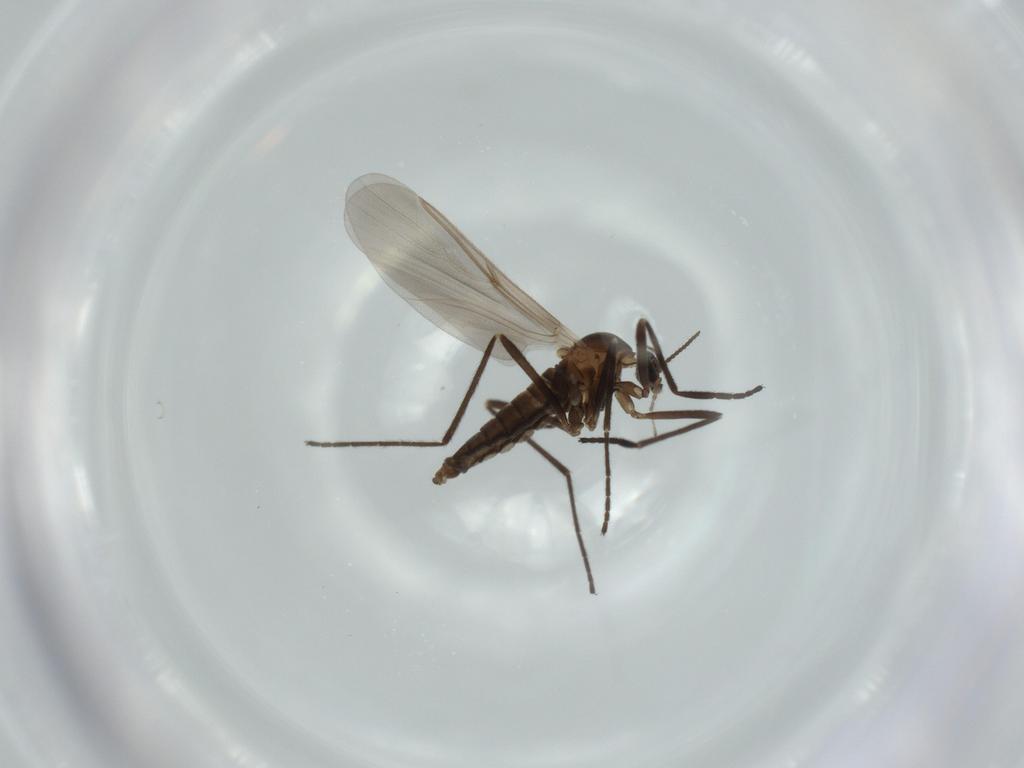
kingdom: Animalia
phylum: Arthropoda
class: Insecta
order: Diptera
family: Cecidomyiidae
